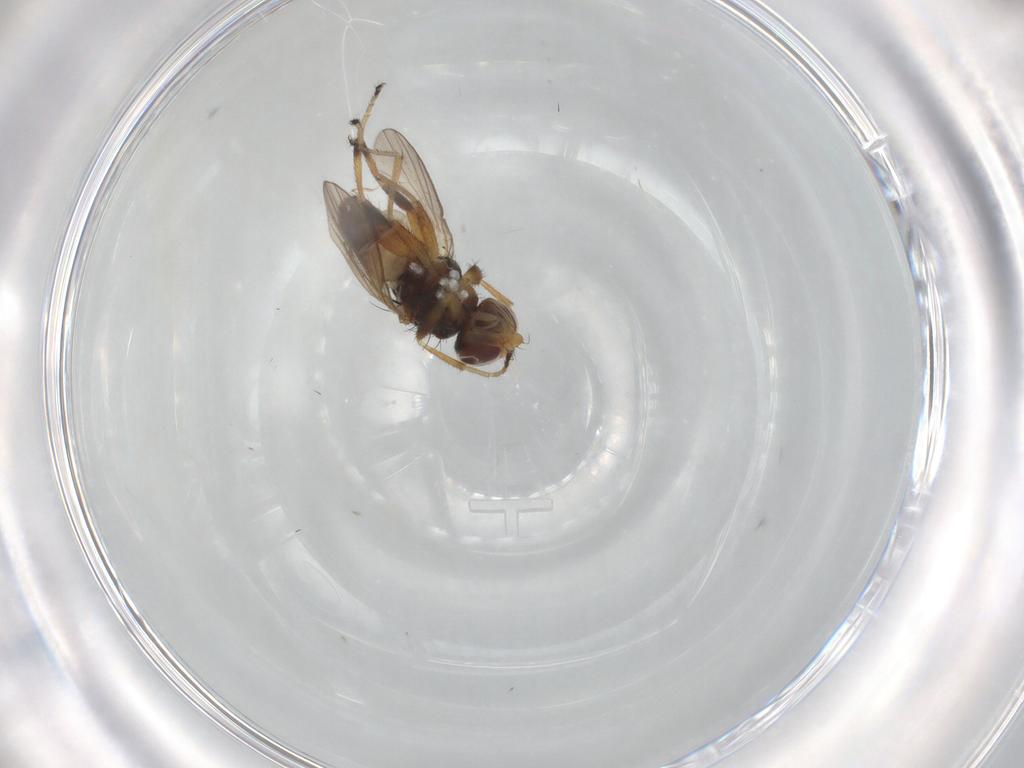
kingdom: Animalia
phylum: Arthropoda
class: Insecta
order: Diptera
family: Canacidae
